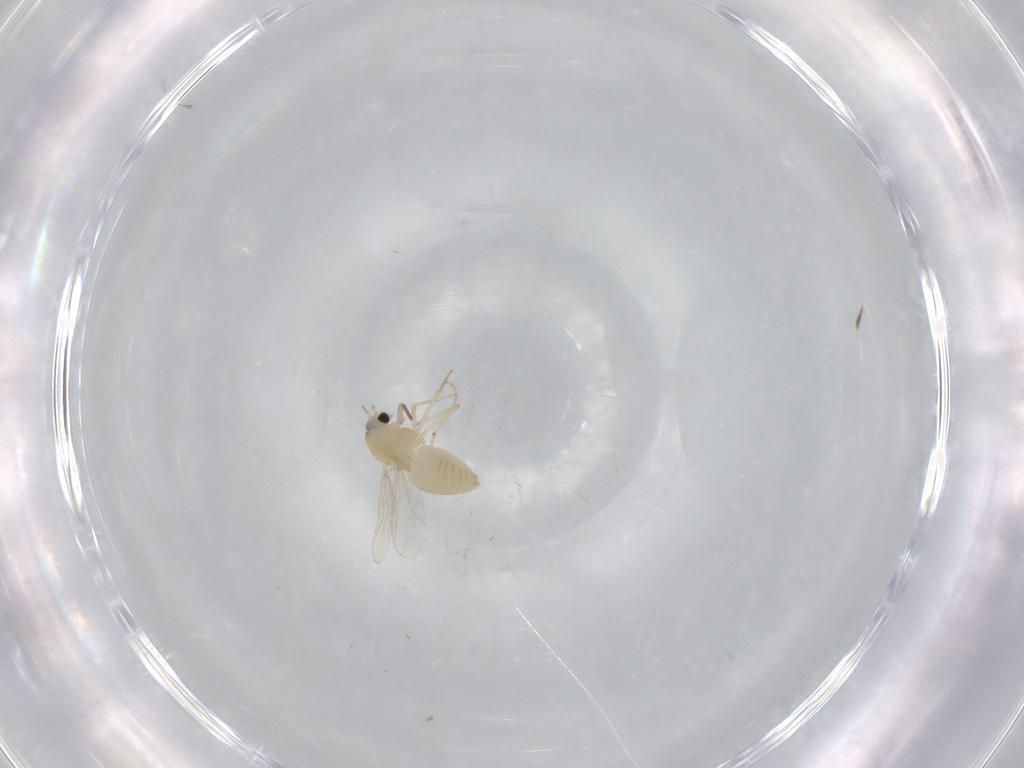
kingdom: Animalia
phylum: Arthropoda
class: Insecta
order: Diptera
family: Chironomidae
